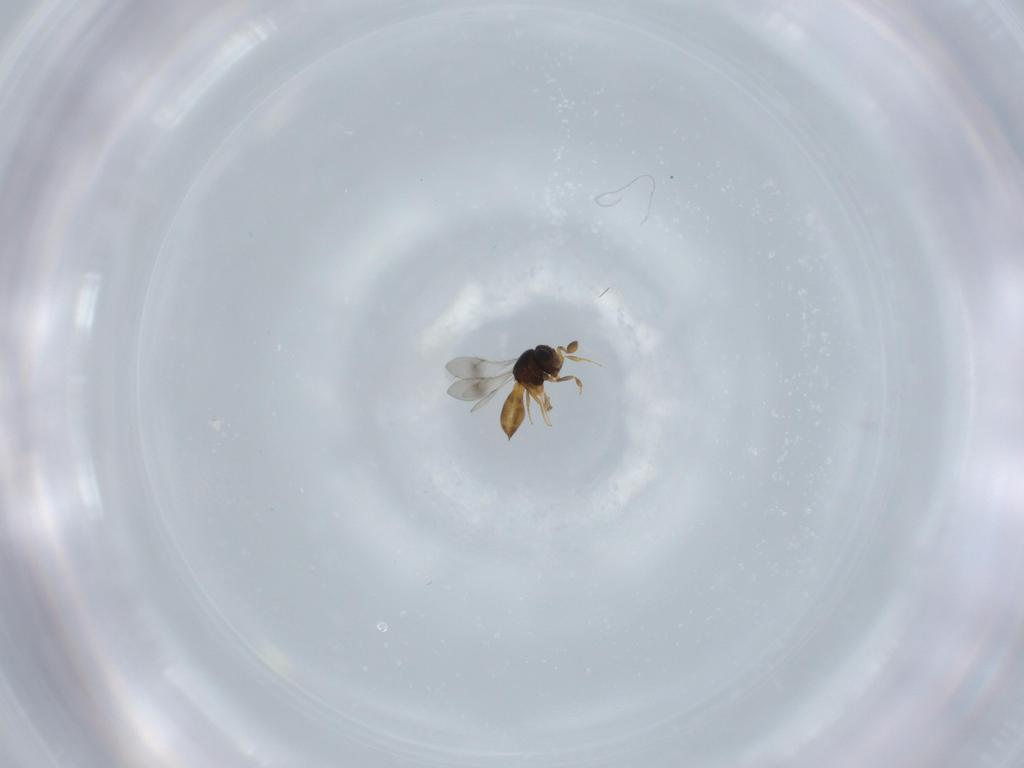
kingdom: Animalia
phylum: Arthropoda
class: Insecta
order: Hymenoptera
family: Scelionidae
